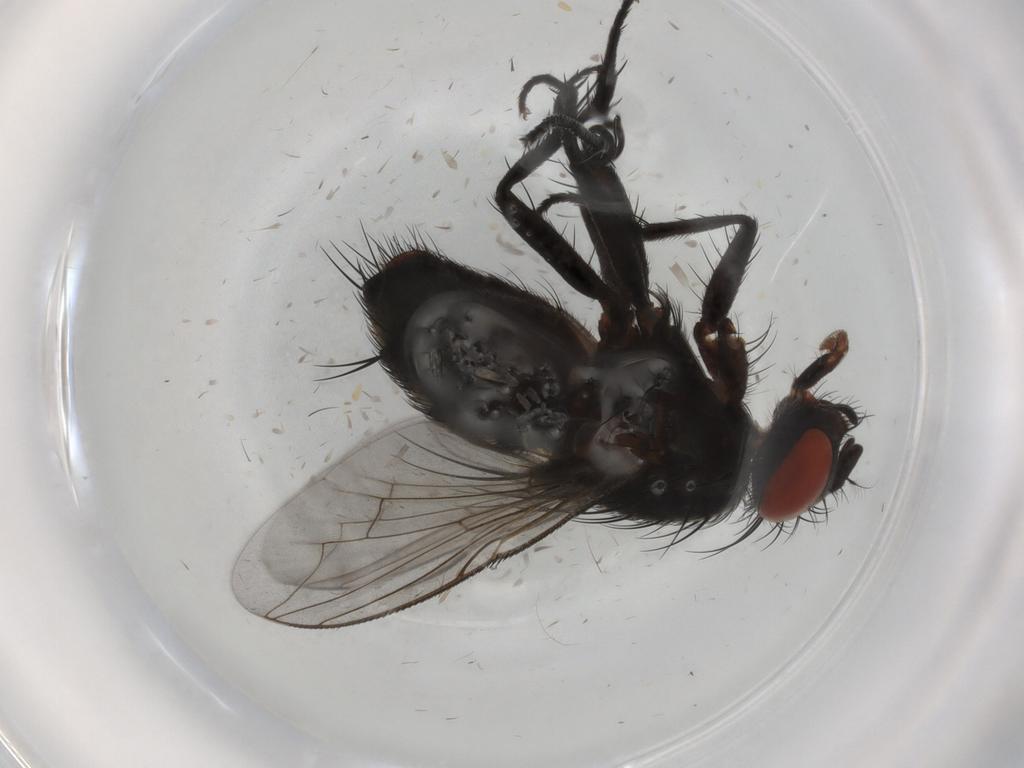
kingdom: Animalia
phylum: Arthropoda
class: Insecta
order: Diptera
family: Sarcophagidae
